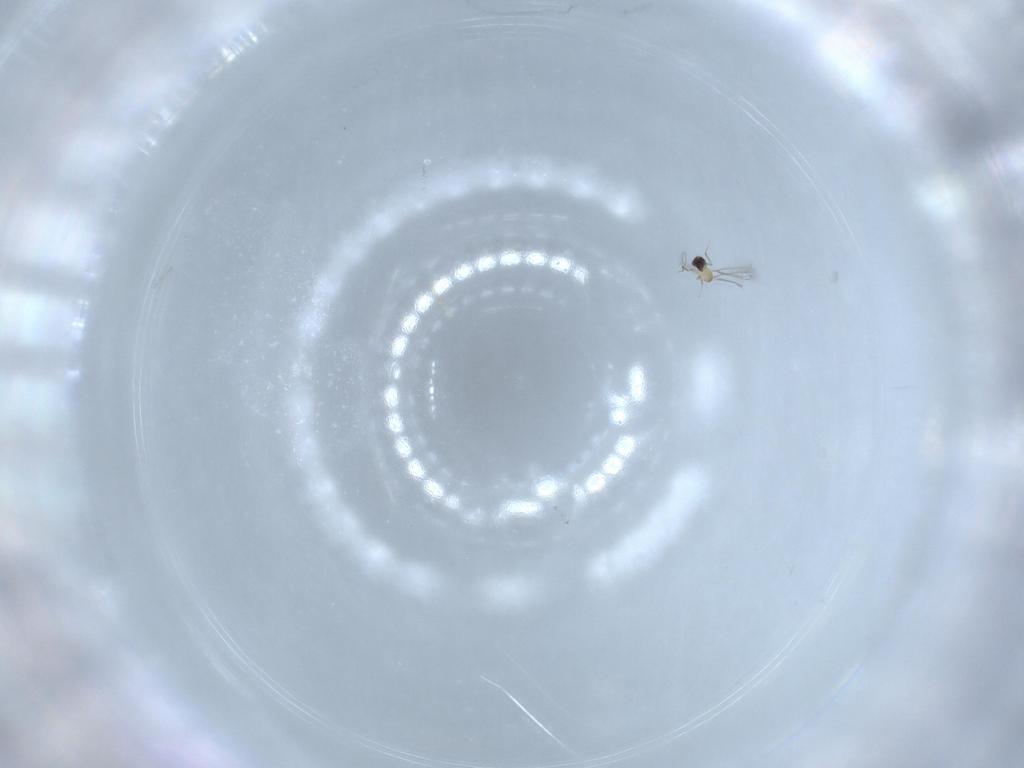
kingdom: Animalia
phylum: Arthropoda
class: Insecta
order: Hymenoptera
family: Mymaridae
